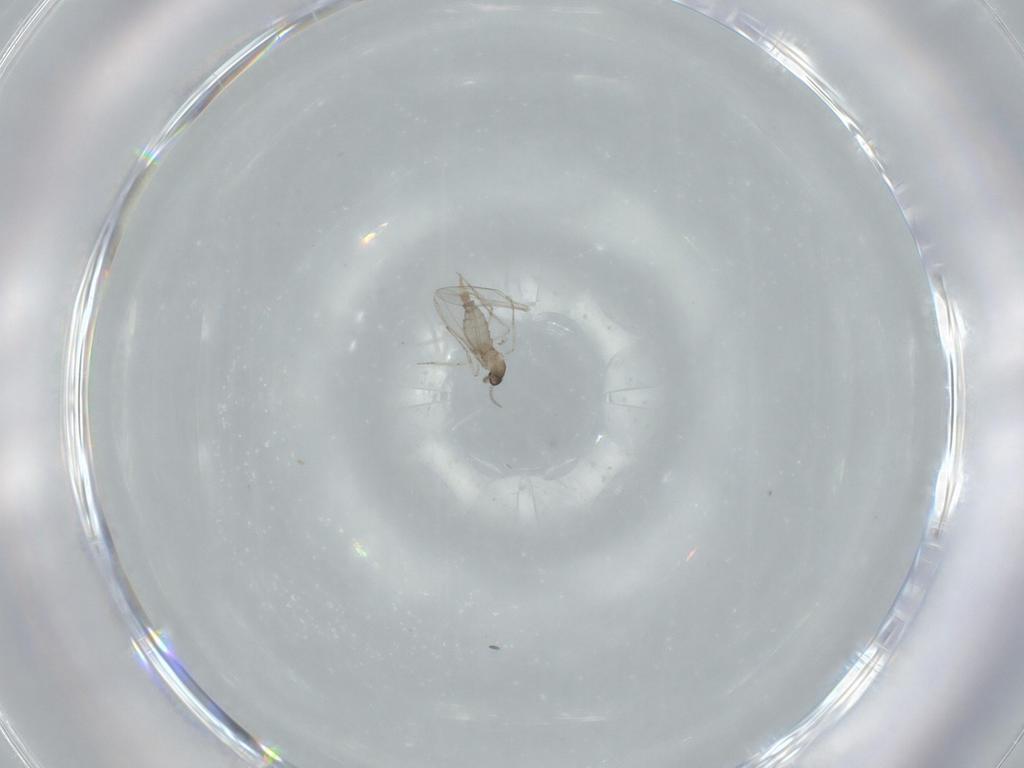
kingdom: Animalia
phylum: Arthropoda
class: Insecta
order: Diptera
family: Cecidomyiidae
